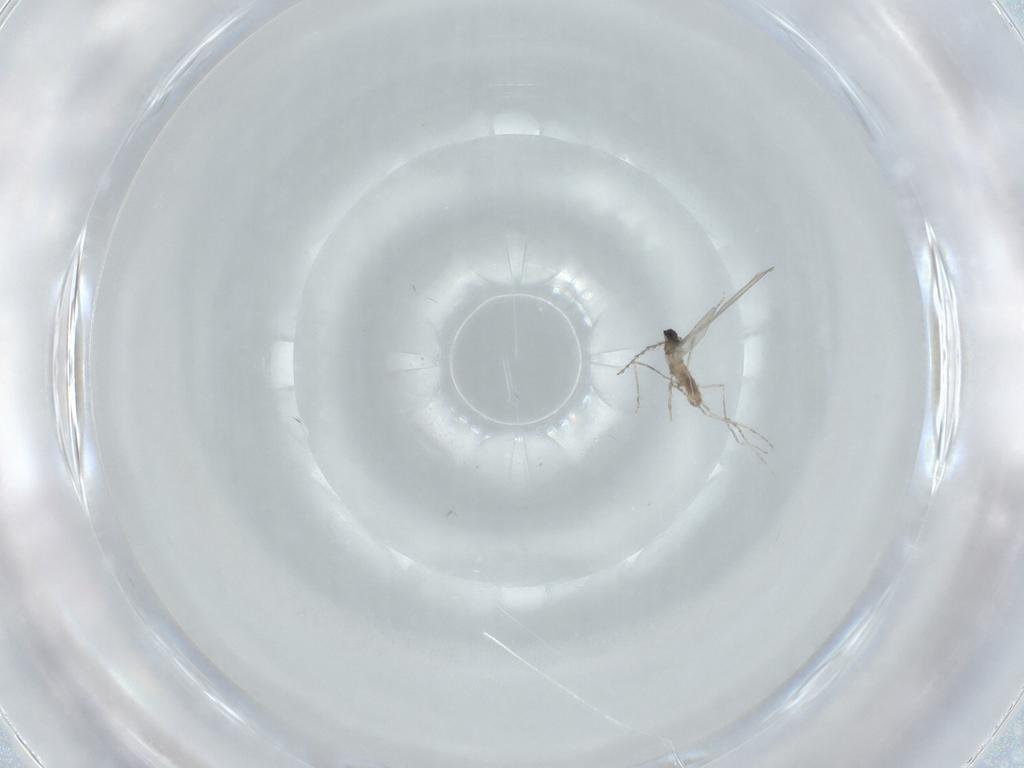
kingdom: Animalia
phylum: Arthropoda
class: Insecta
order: Diptera
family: Cecidomyiidae
